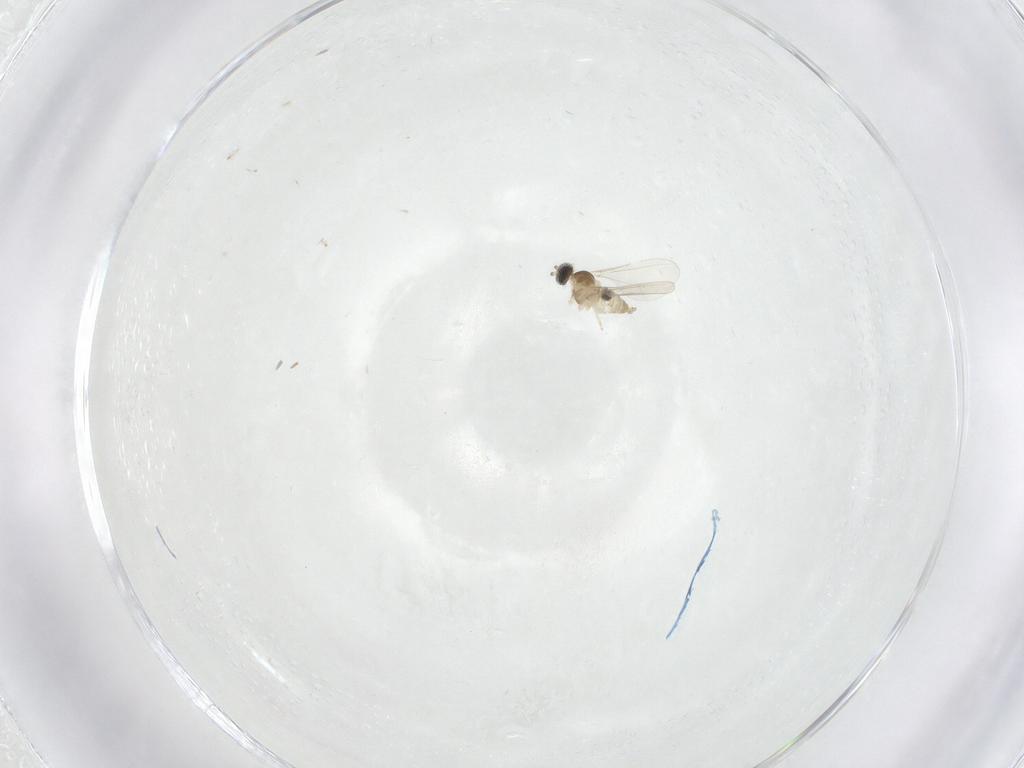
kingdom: Animalia
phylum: Arthropoda
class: Insecta
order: Diptera
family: Cecidomyiidae
